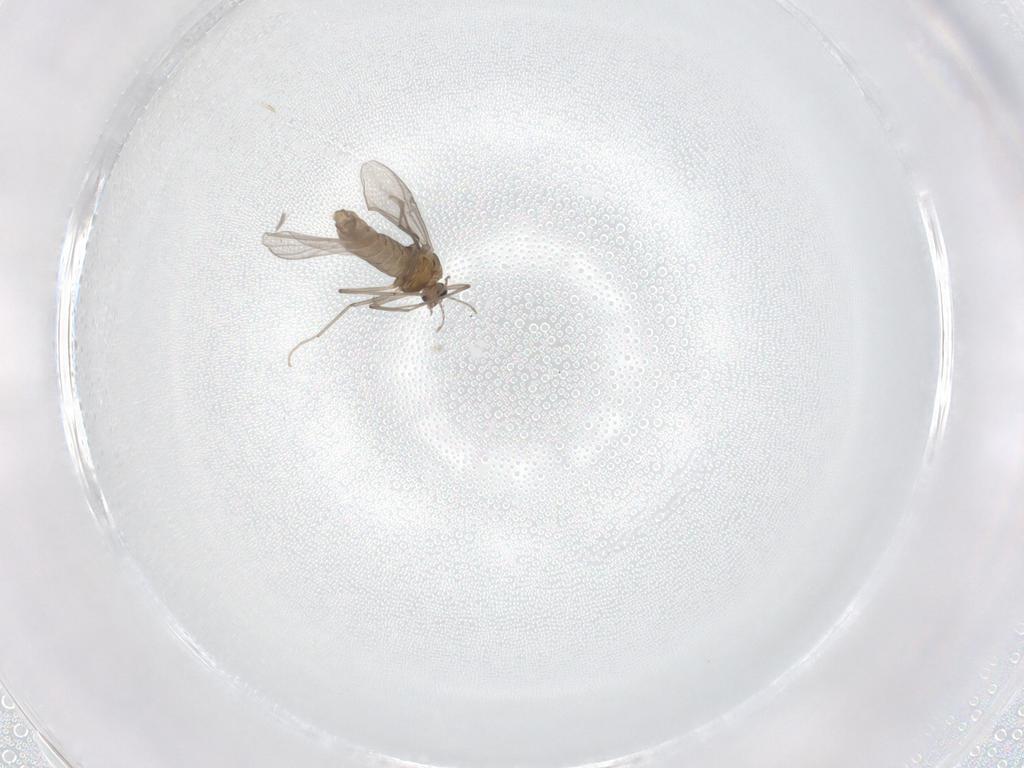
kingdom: Animalia
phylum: Arthropoda
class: Insecta
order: Diptera
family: Chironomidae
